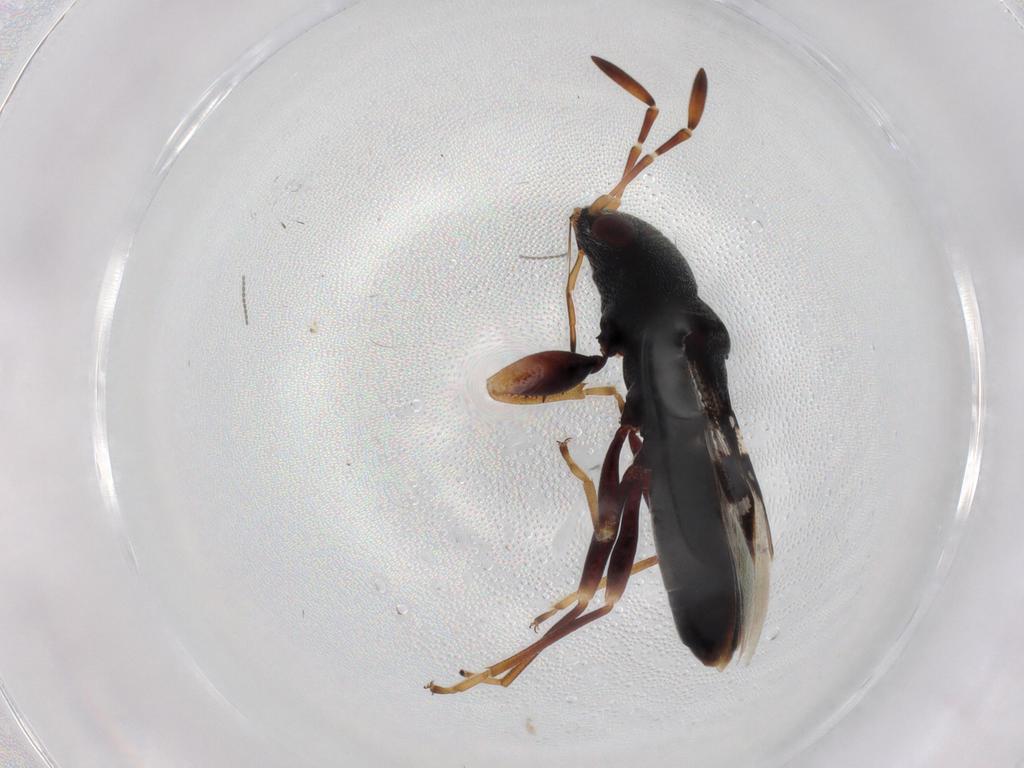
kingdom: Animalia
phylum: Arthropoda
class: Insecta
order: Hemiptera
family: Rhyparochromidae
